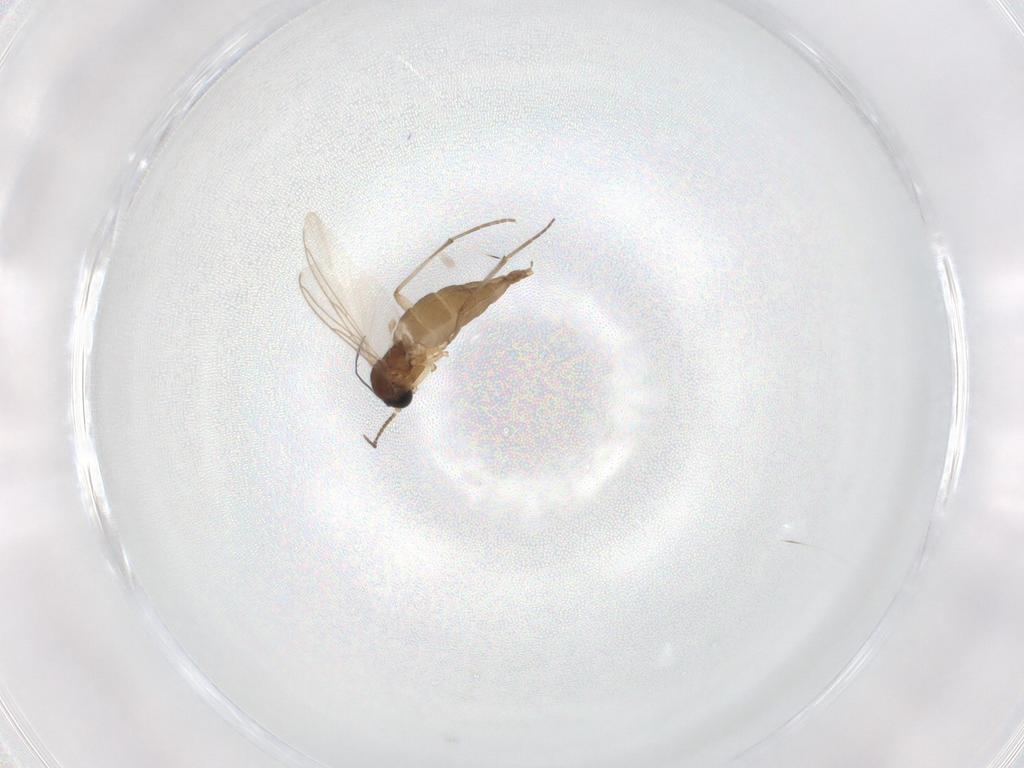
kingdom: Animalia
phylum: Arthropoda
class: Insecta
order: Diptera
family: Sciaridae
